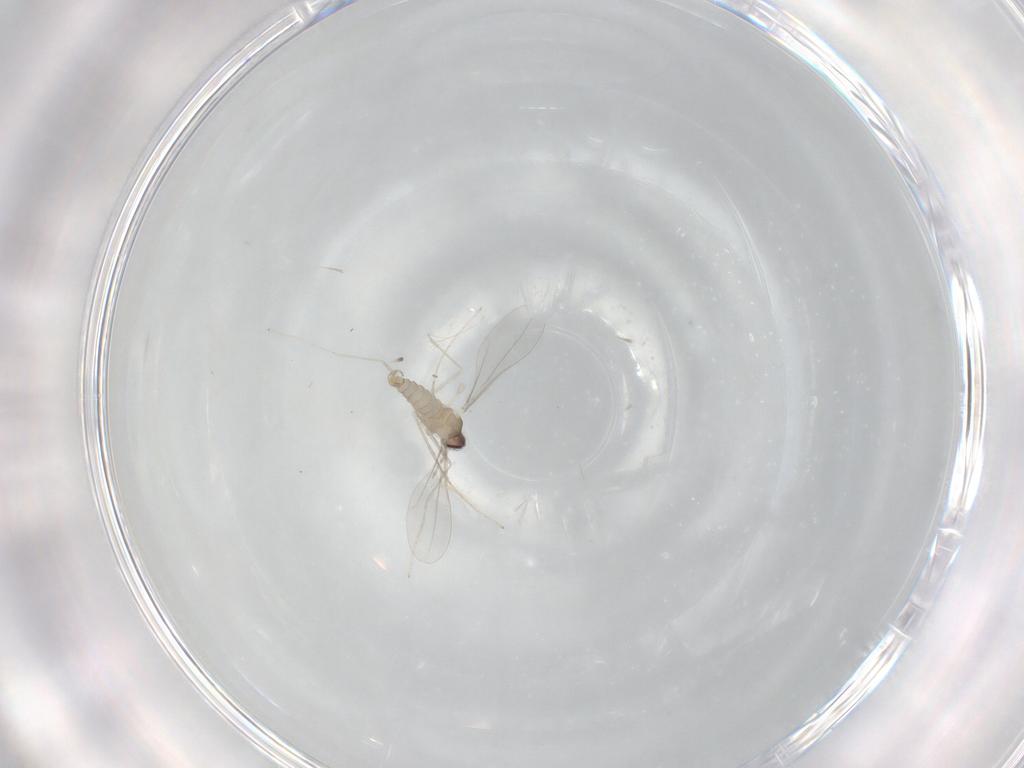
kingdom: Animalia
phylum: Arthropoda
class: Insecta
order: Diptera
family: Cecidomyiidae
